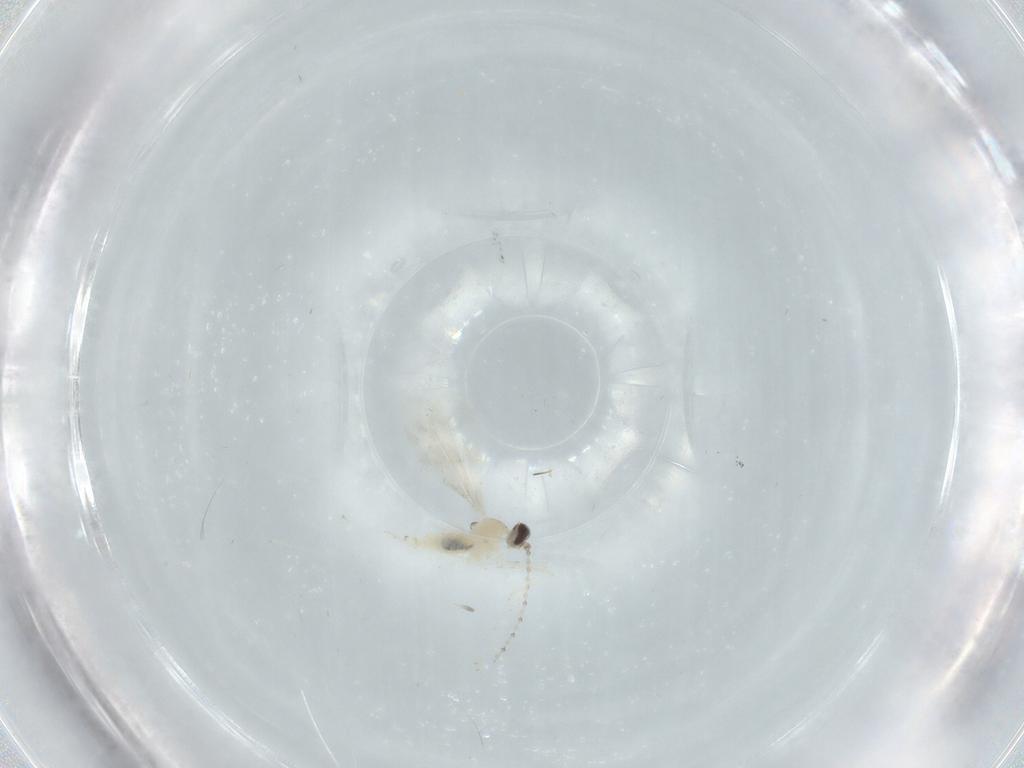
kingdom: Animalia
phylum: Arthropoda
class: Insecta
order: Diptera
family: Cecidomyiidae
